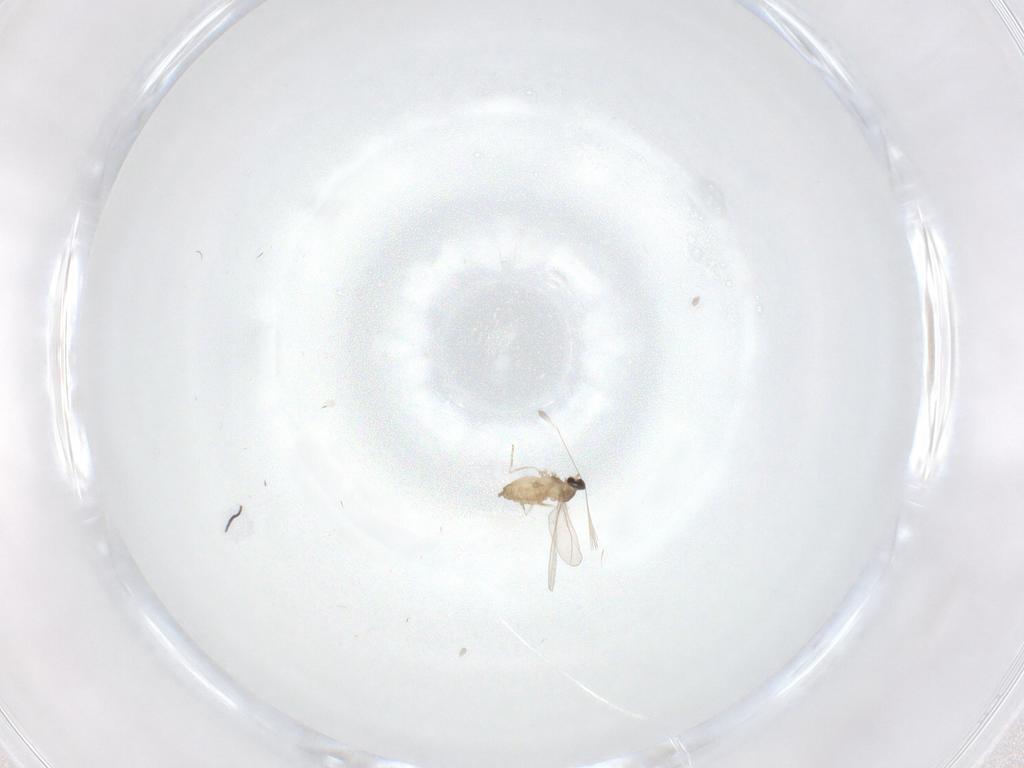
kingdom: Animalia
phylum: Arthropoda
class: Insecta
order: Diptera
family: Cecidomyiidae
